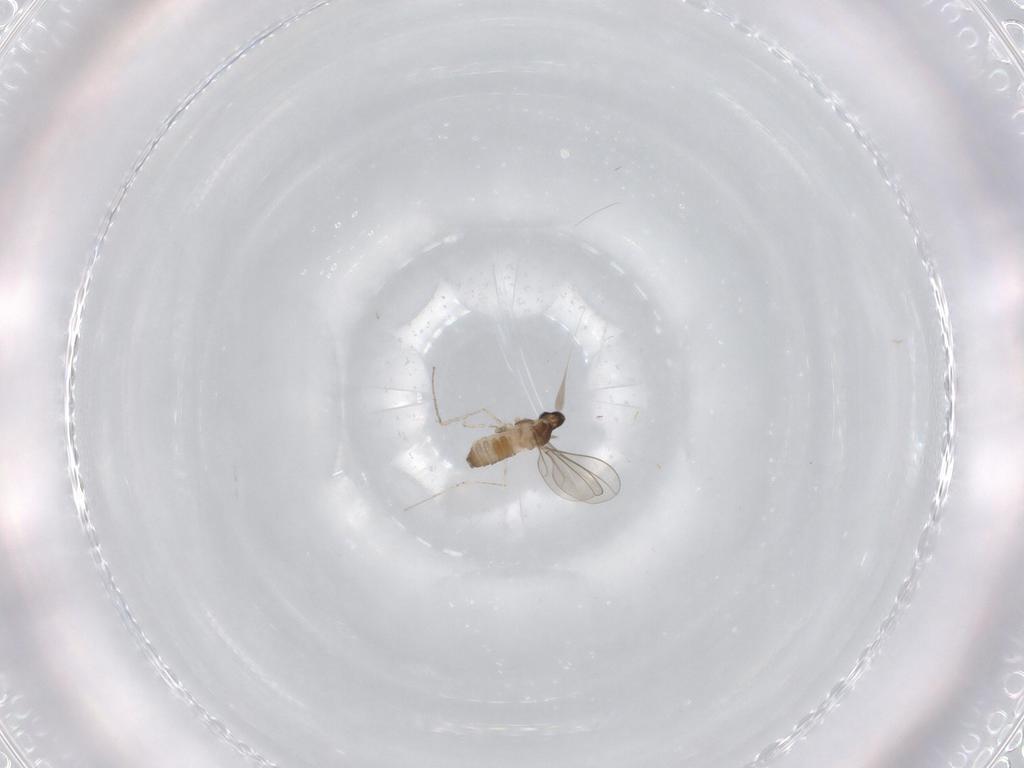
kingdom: Animalia
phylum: Arthropoda
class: Insecta
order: Diptera
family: Cecidomyiidae
